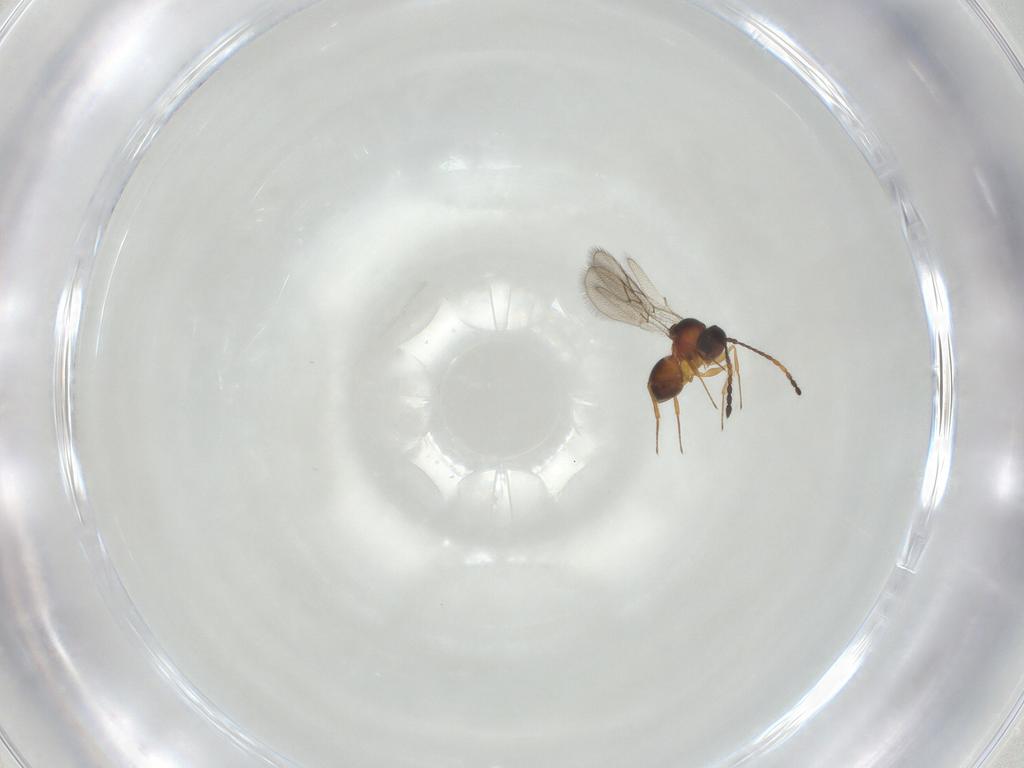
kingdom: Animalia
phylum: Arthropoda
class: Insecta
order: Hymenoptera
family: Figitidae
